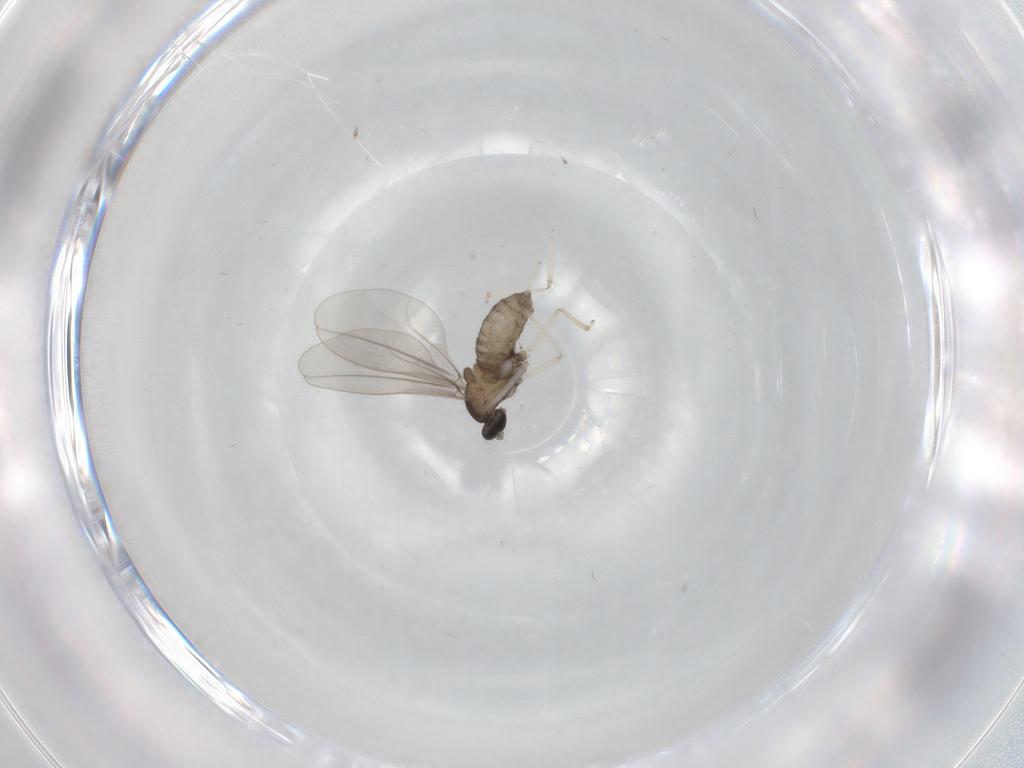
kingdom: Animalia
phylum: Arthropoda
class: Insecta
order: Diptera
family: Cecidomyiidae
